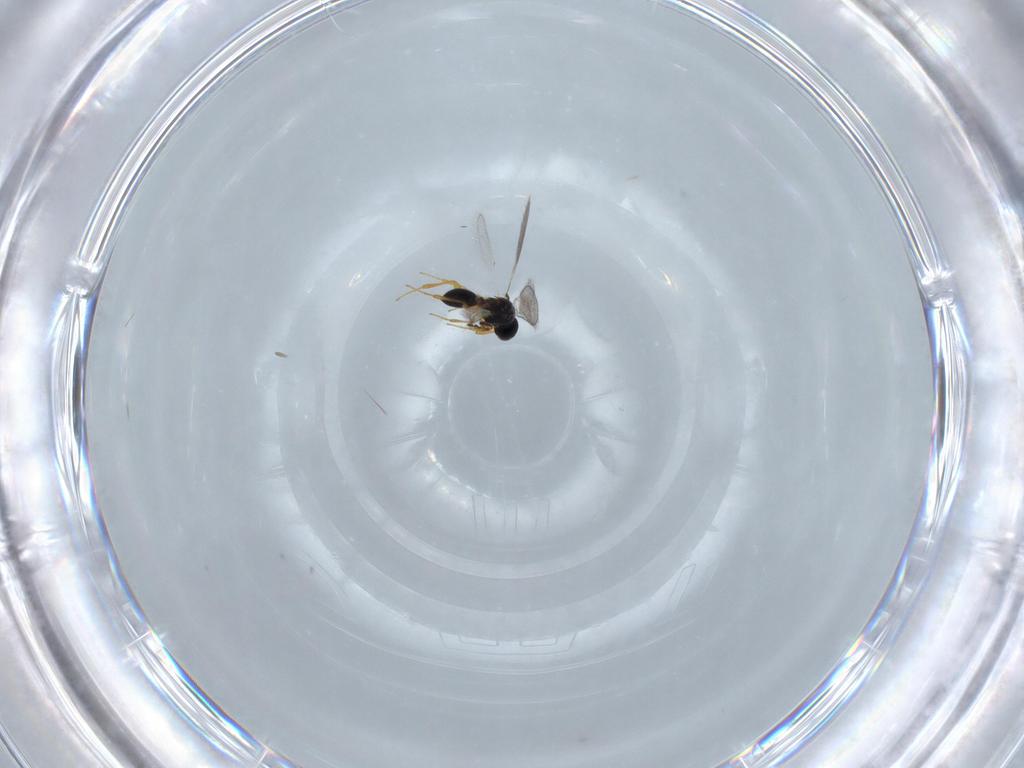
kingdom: Animalia
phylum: Arthropoda
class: Insecta
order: Hymenoptera
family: Platygastridae
